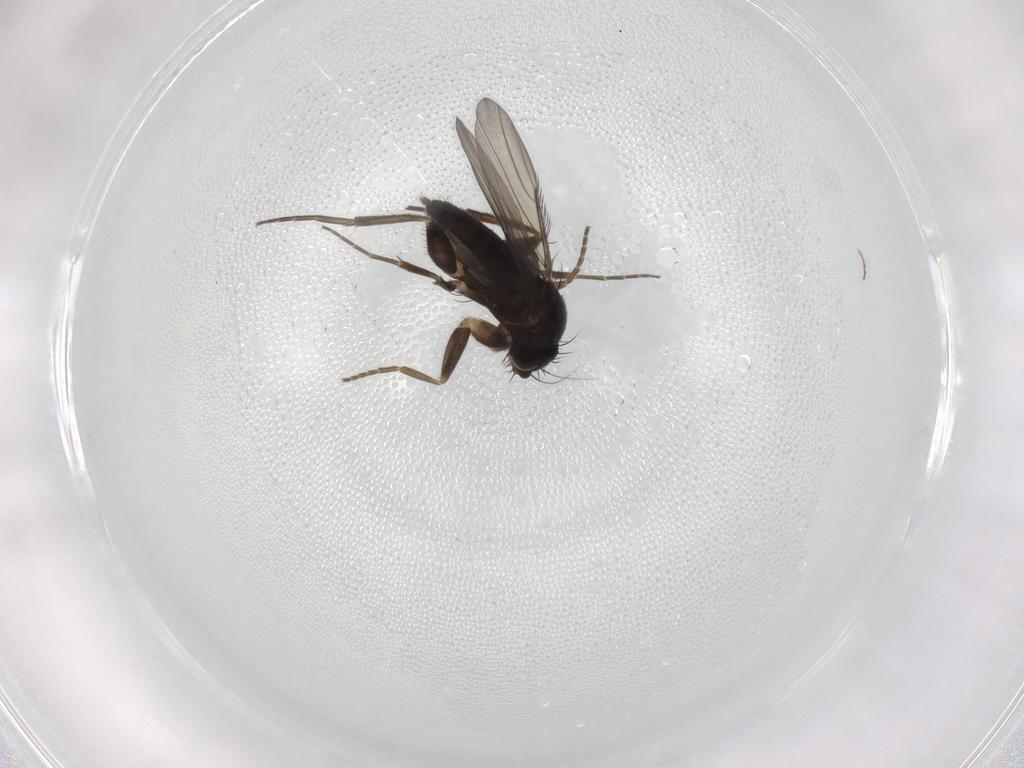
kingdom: Animalia
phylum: Arthropoda
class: Insecta
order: Diptera
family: Phoridae
